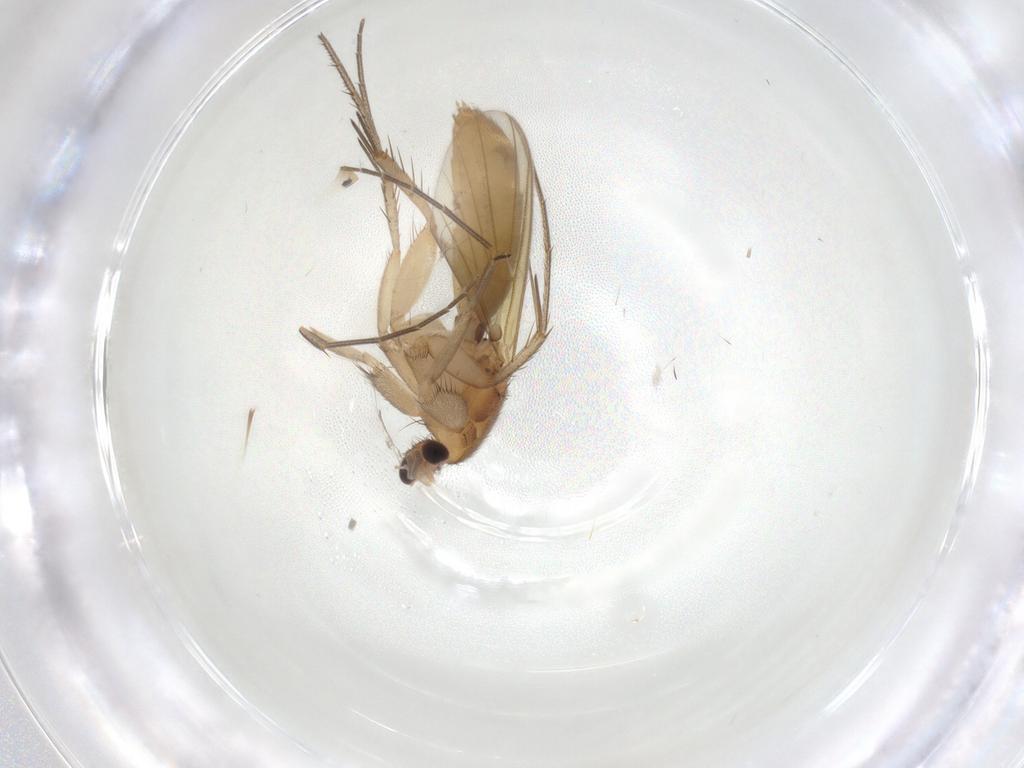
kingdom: Animalia
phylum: Arthropoda
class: Insecta
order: Diptera
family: Mycetophilidae
